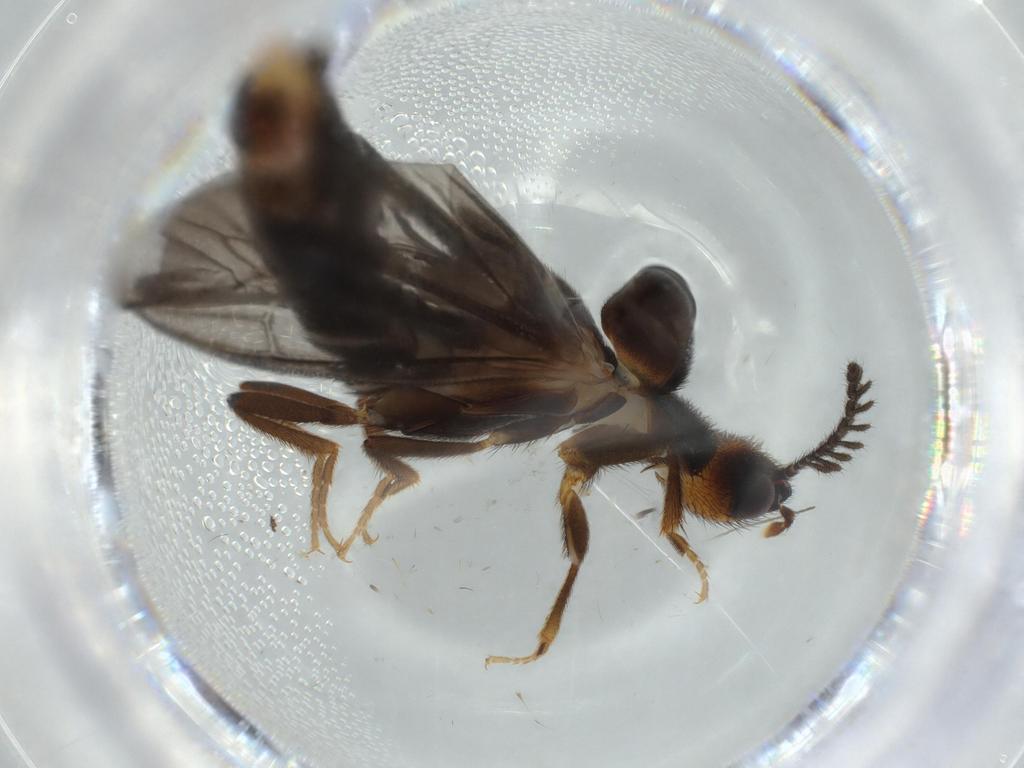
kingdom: Animalia
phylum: Arthropoda
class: Insecta
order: Coleoptera
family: Phengodidae
